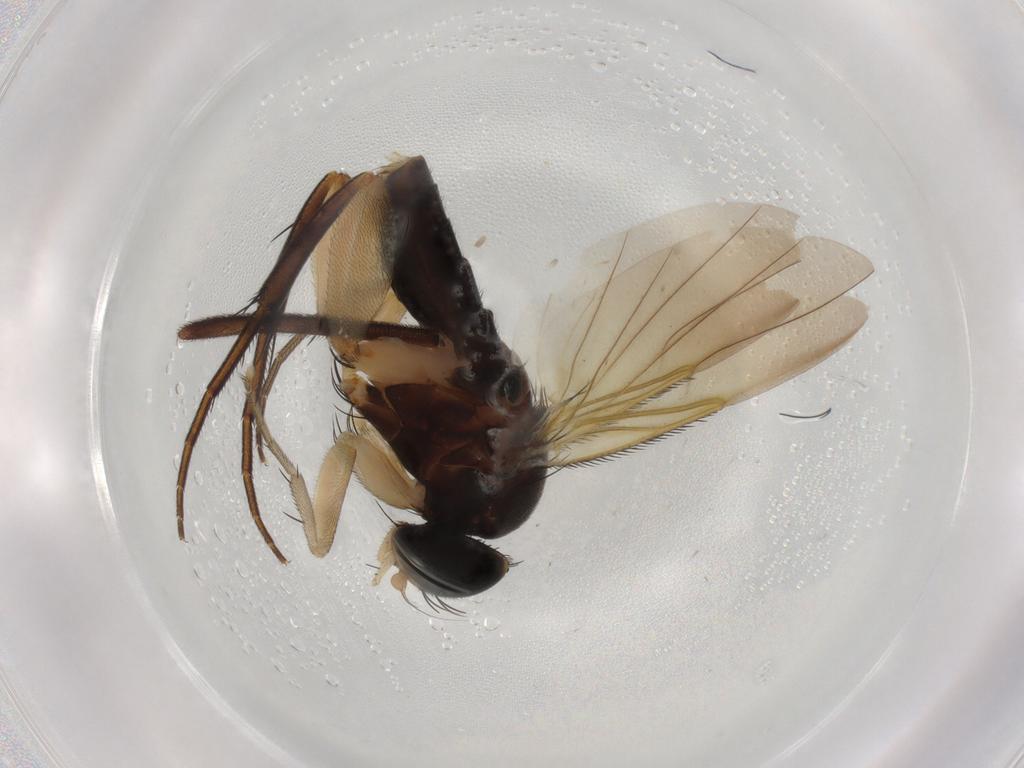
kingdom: Animalia
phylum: Arthropoda
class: Insecta
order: Diptera
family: Phoridae
